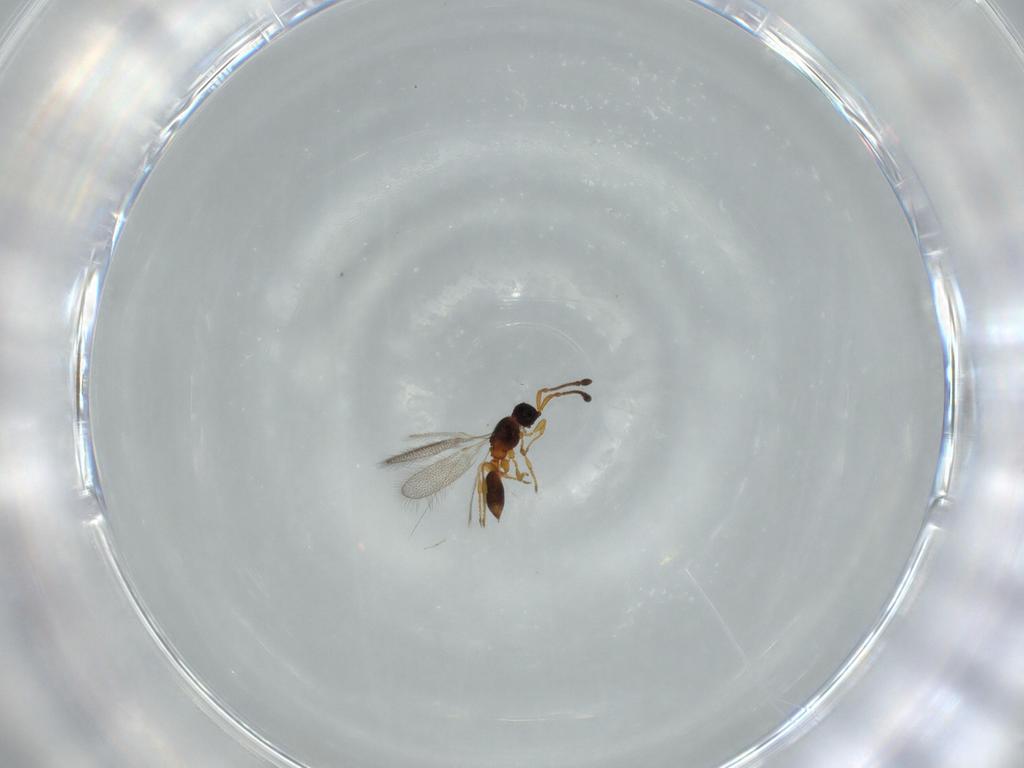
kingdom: Animalia
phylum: Arthropoda
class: Insecta
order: Hymenoptera
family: Diapriidae
